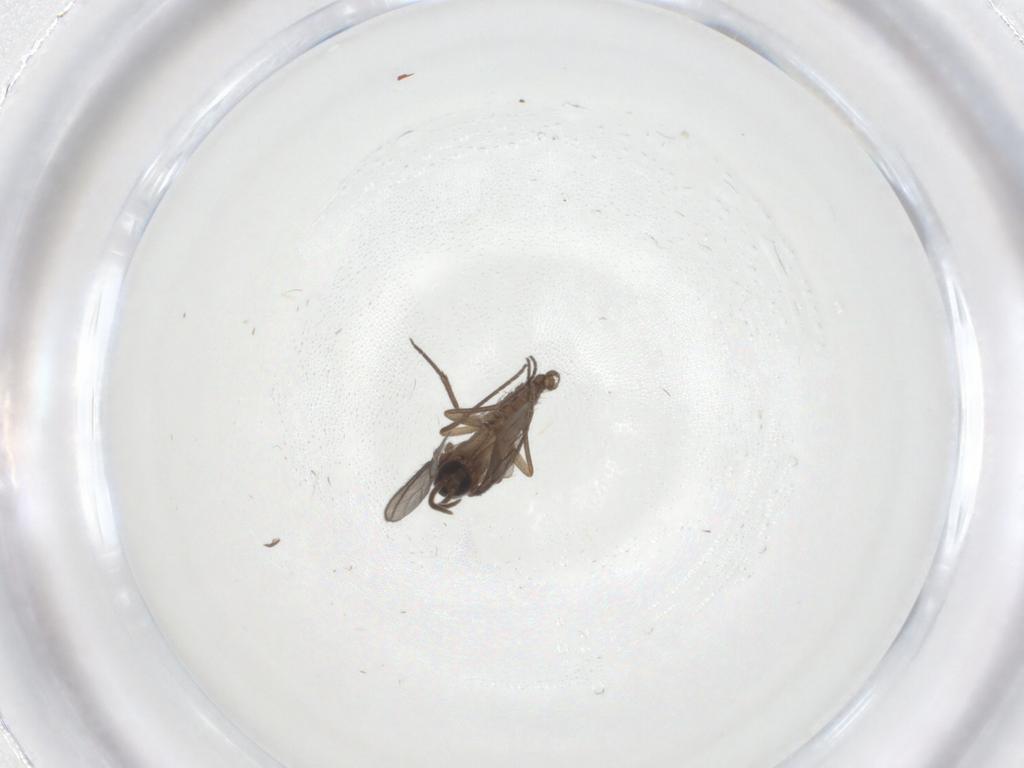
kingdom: Animalia
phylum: Arthropoda
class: Insecta
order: Diptera
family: Sciaridae
